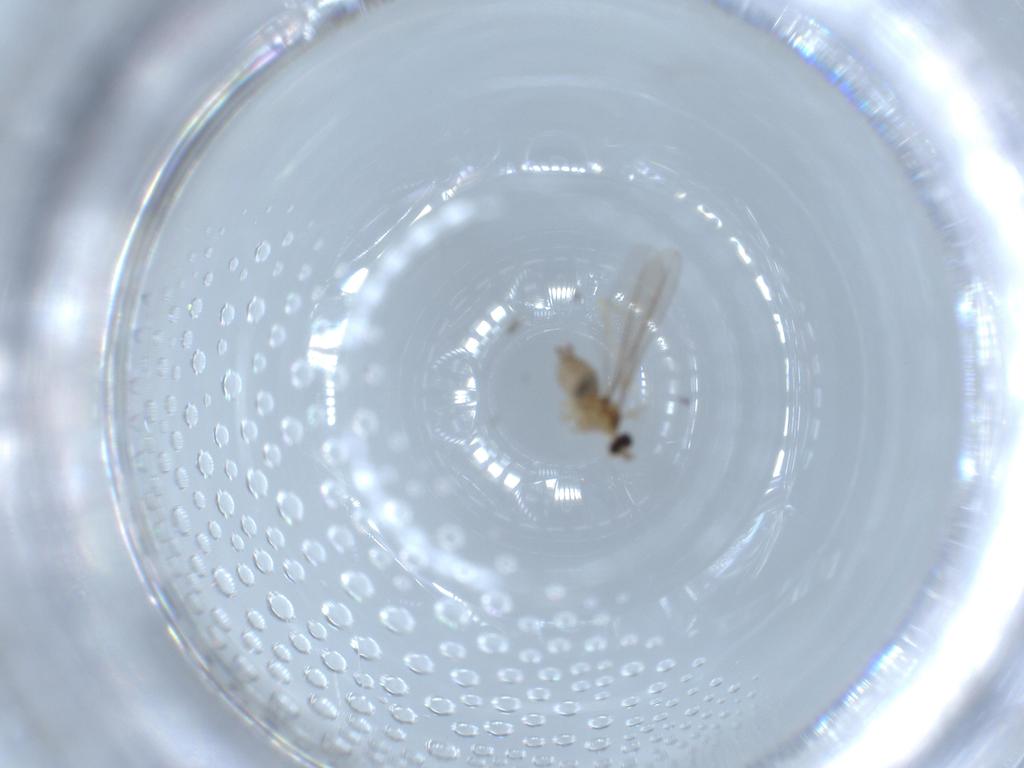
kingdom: Animalia
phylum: Arthropoda
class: Insecta
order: Diptera
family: Cecidomyiidae
